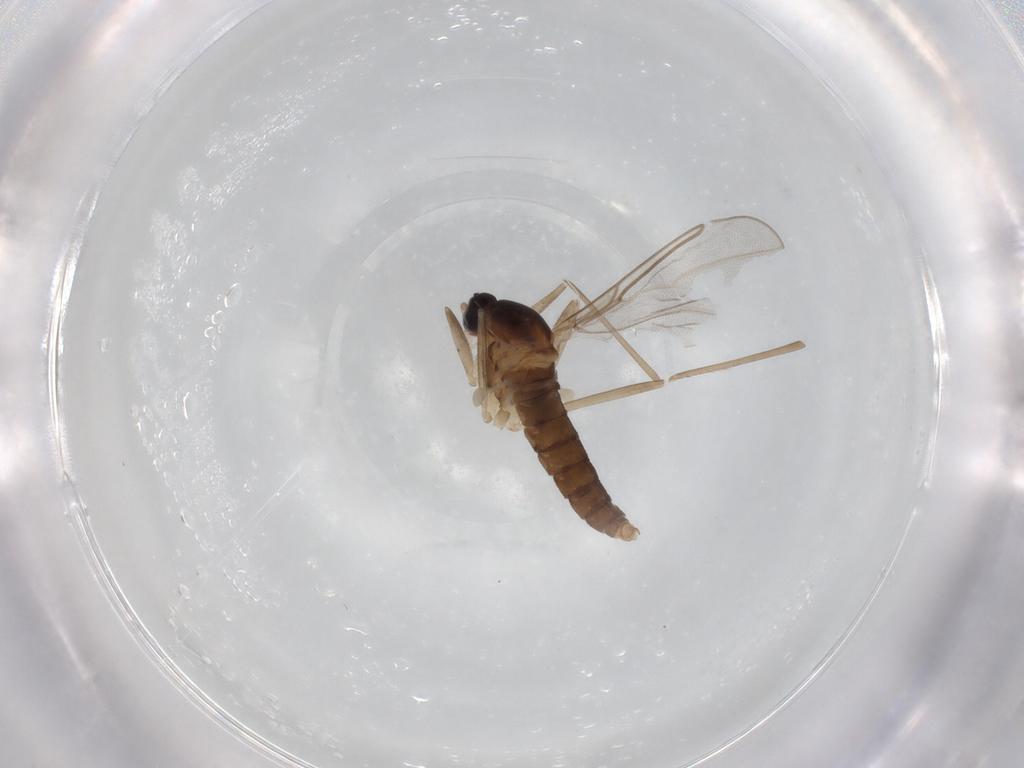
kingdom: Animalia
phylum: Arthropoda
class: Insecta
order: Diptera
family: Cecidomyiidae
